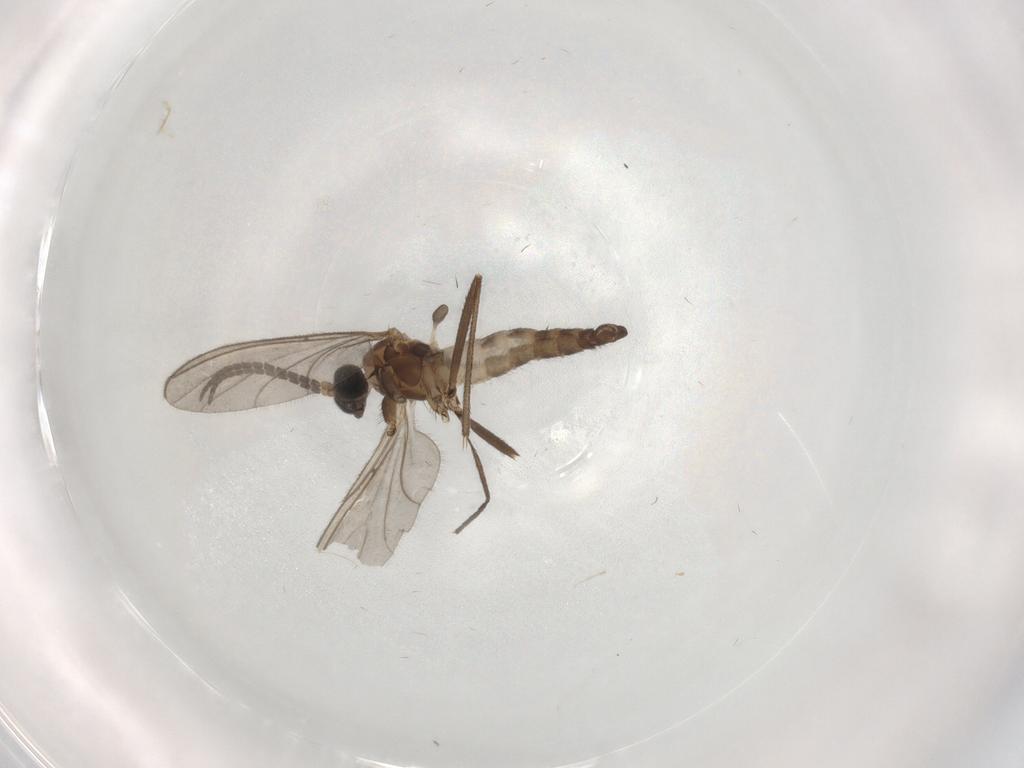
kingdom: Animalia
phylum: Arthropoda
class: Insecta
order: Diptera
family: Sciaridae
